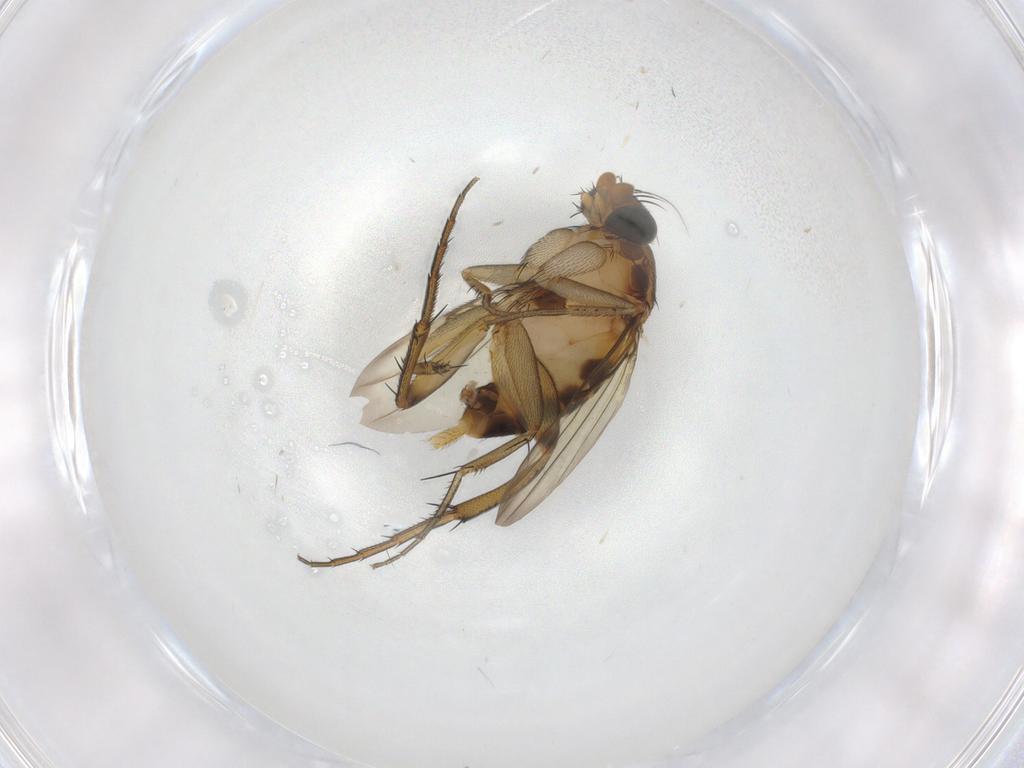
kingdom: Animalia
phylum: Arthropoda
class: Insecta
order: Diptera
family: Phoridae
